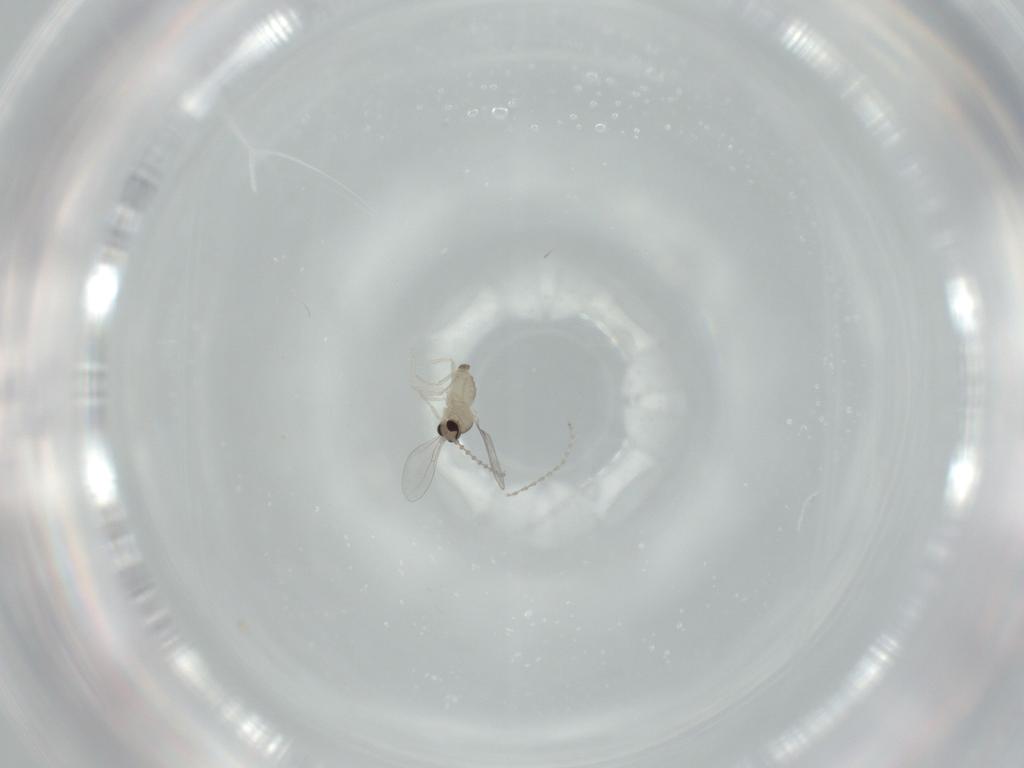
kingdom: Animalia
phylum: Arthropoda
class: Insecta
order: Diptera
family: Cecidomyiidae
